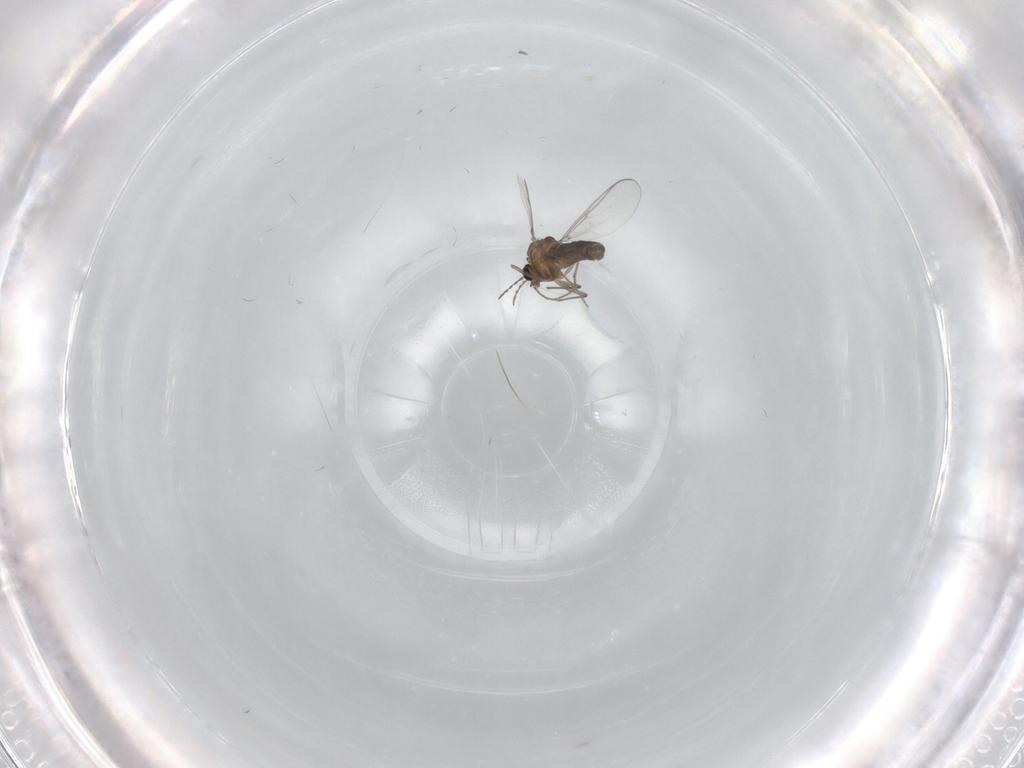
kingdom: Animalia
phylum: Arthropoda
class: Insecta
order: Diptera
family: Chironomidae
